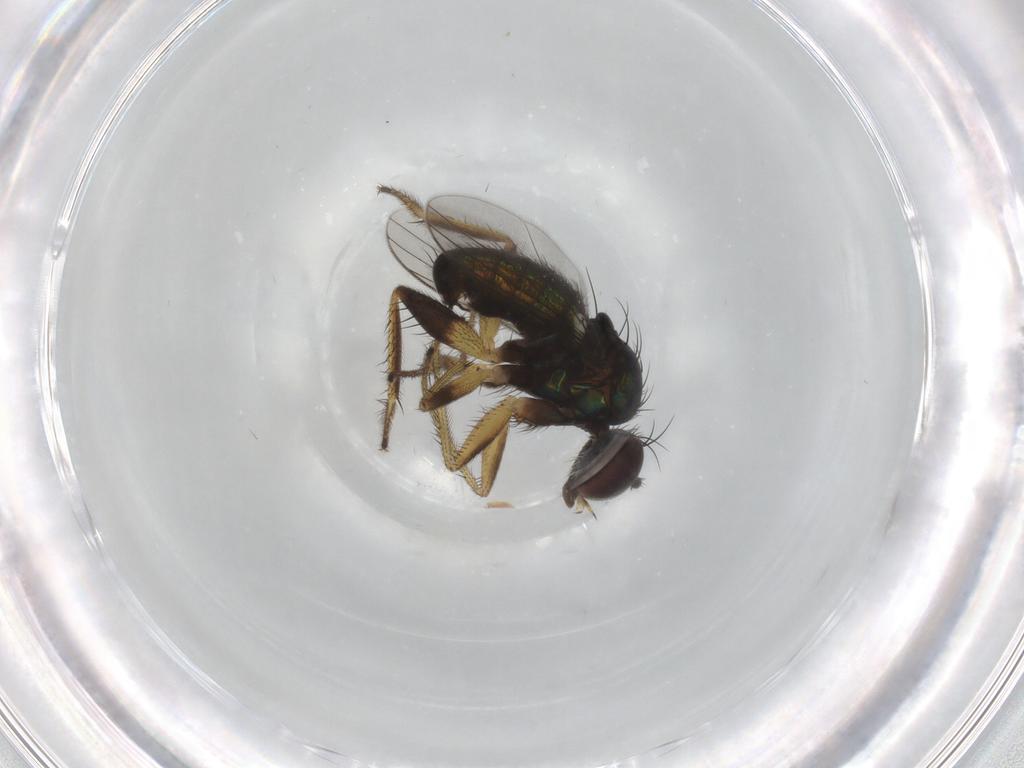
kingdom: Animalia
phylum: Arthropoda
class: Insecta
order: Diptera
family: Dolichopodidae
